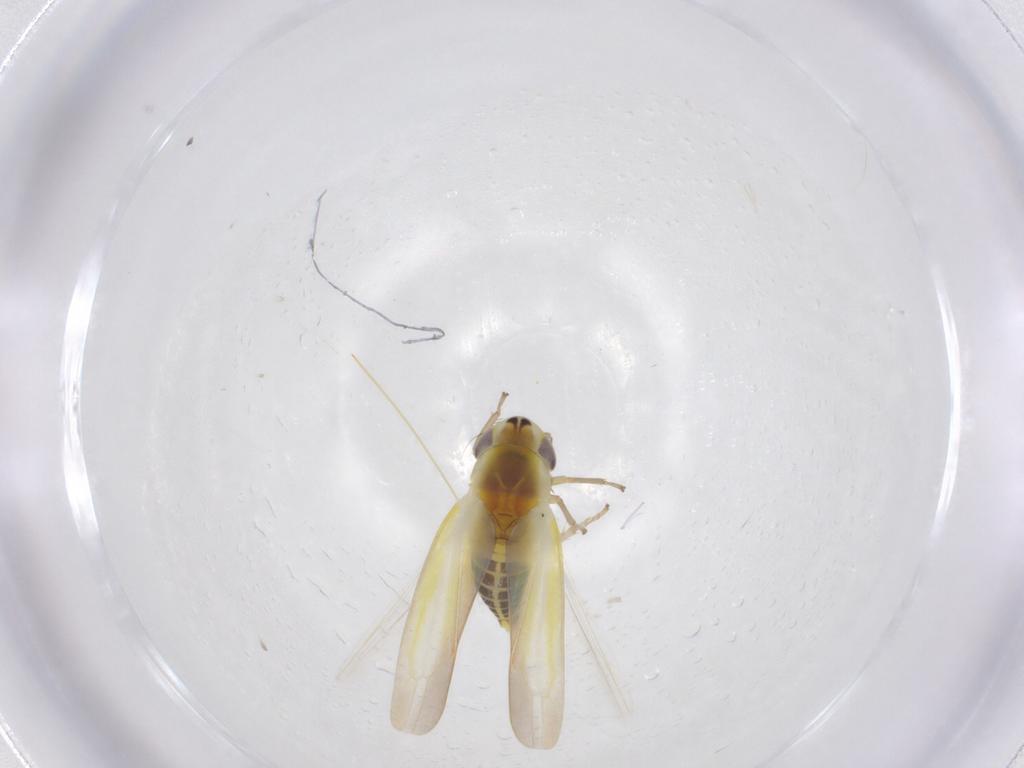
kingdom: Animalia
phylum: Arthropoda
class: Insecta
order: Hemiptera
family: Cicadellidae
